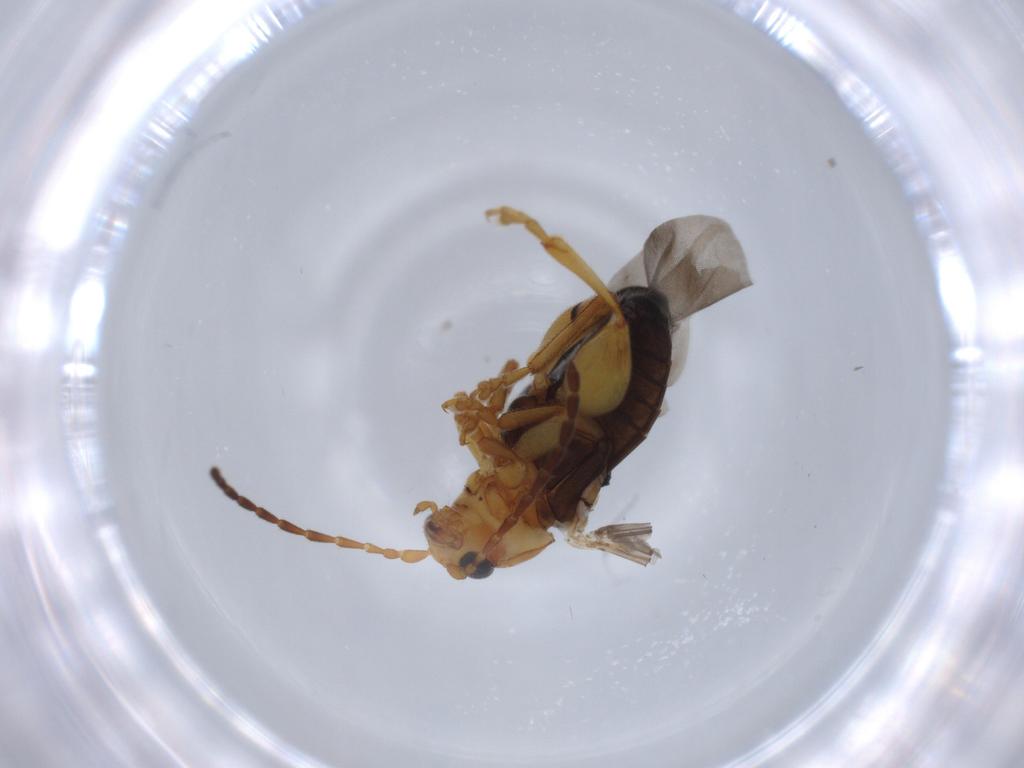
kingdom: Animalia
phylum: Arthropoda
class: Insecta
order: Coleoptera
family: Chrysomelidae
